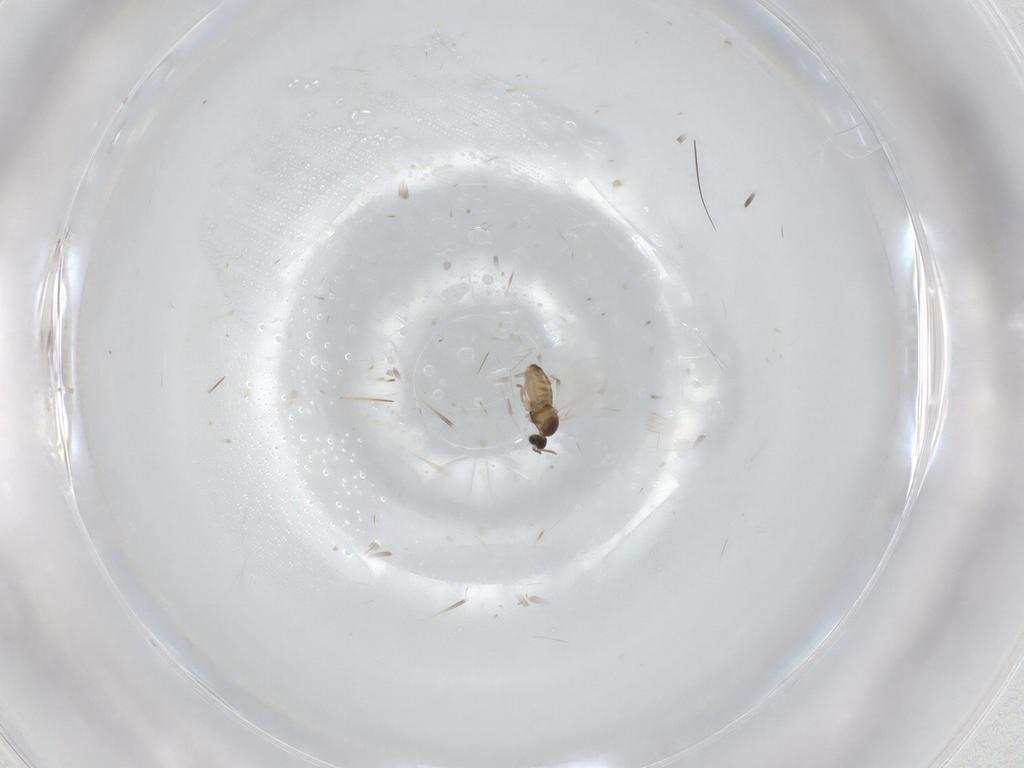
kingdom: Animalia
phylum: Arthropoda
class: Insecta
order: Diptera
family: Cecidomyiidae
